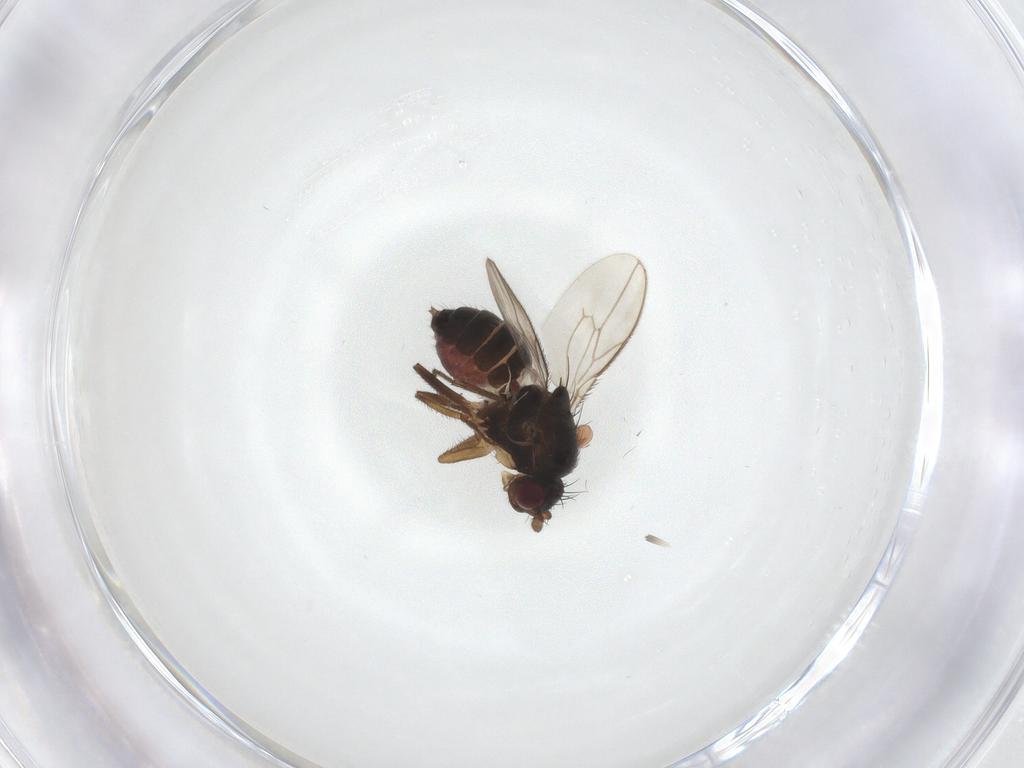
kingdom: Animalia
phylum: Arthropoda
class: Insecta
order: Diptera
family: Sphaeroceridae
